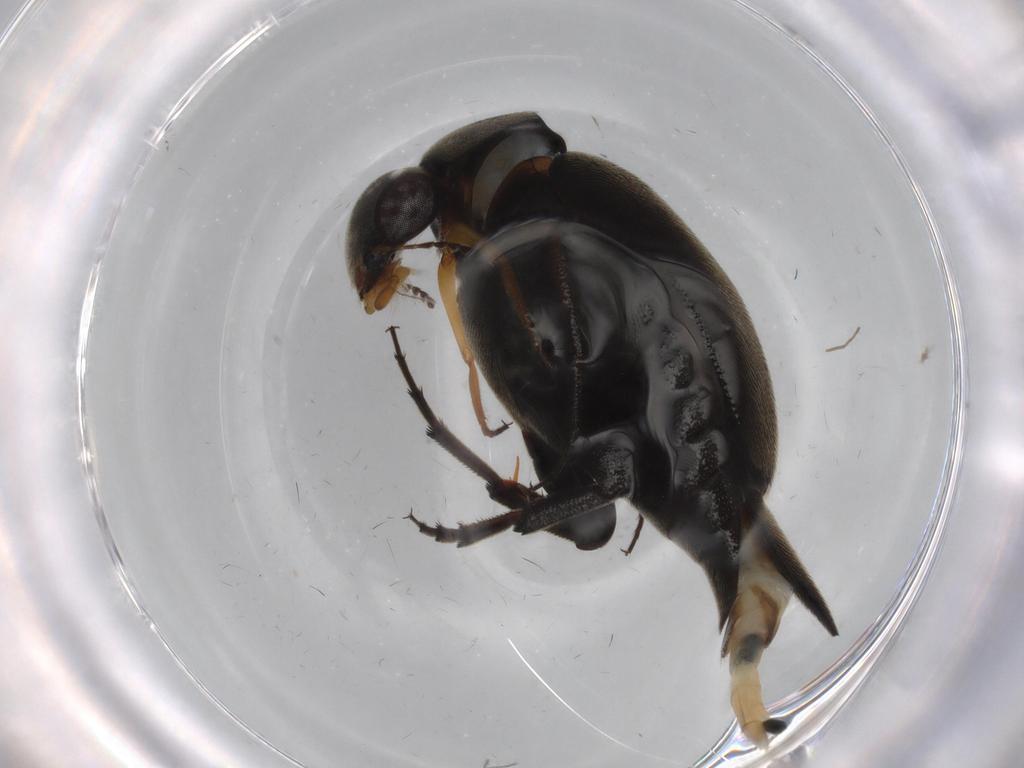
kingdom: Animalia
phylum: Arthropoda
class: Insecta
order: Coleoptera
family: Mordellidae
